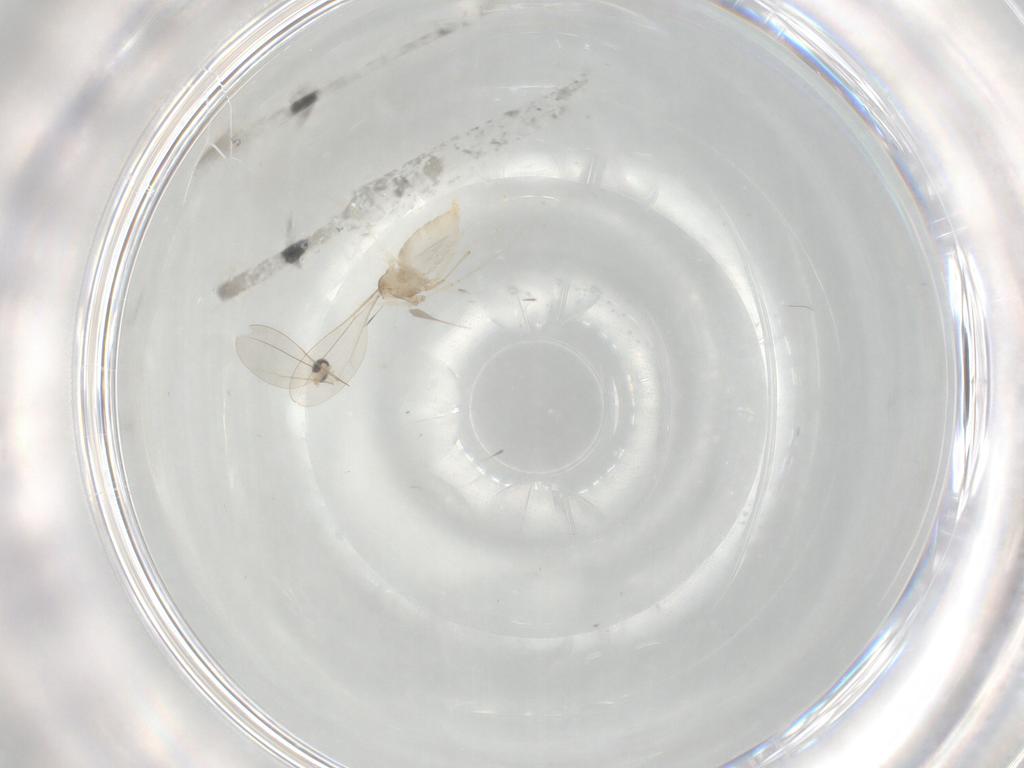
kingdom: Animalia
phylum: Arthropoda
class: Insecta
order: Diptera
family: Cecidomyiidae
